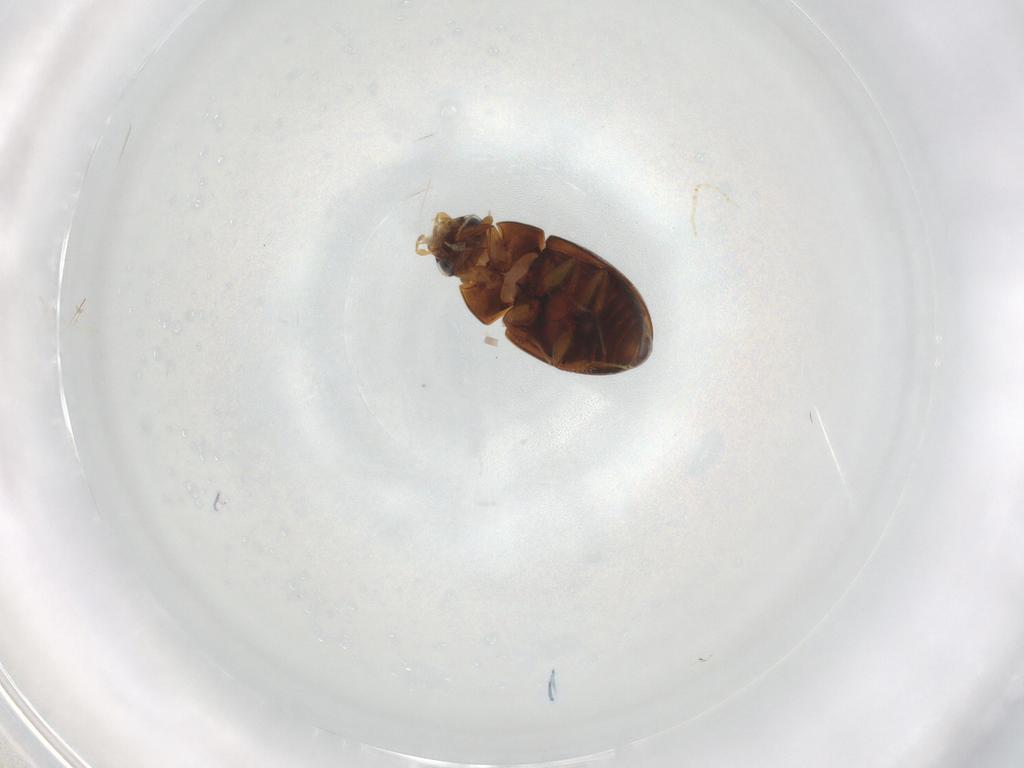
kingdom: Animalia
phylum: Arthropoda
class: Insecta
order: Coleoptera
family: Hydrophilidae
